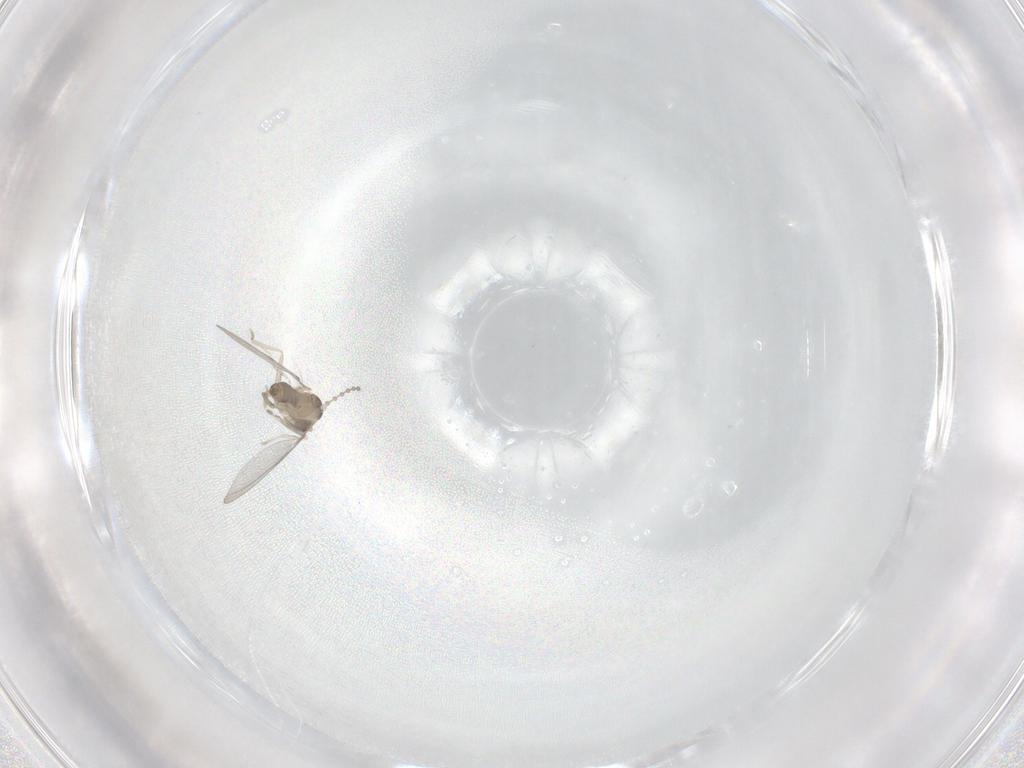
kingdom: Animalia
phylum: Arthropoda
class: Insecta
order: Diptera
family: Cecidomyiidae
